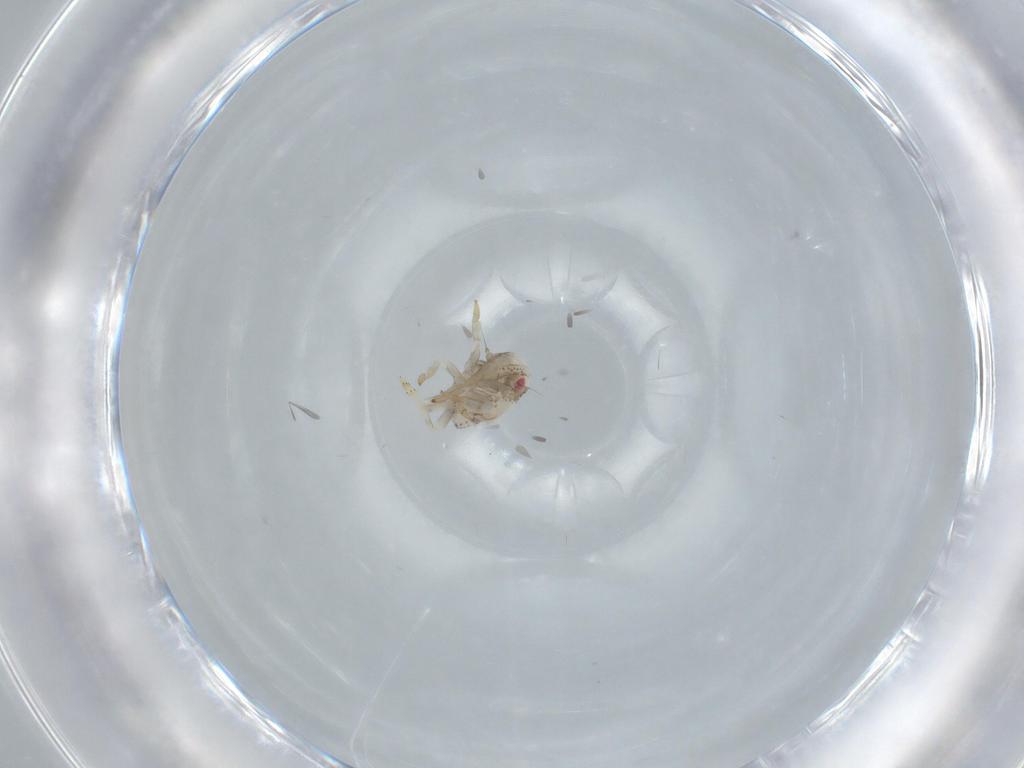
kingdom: Animalia
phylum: Arthropoda
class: Insecta
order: Hemiptera
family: Acanaloniidae
